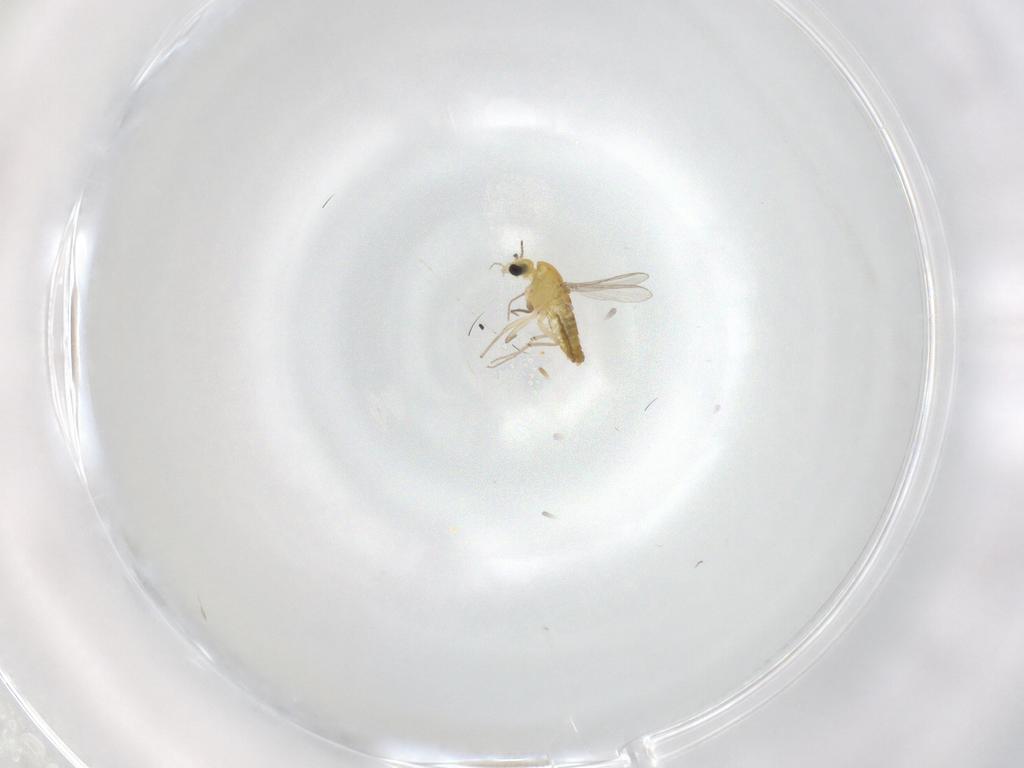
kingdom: Animalia
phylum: Arthropoda
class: Insecta
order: Diptera
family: Chironomidae
